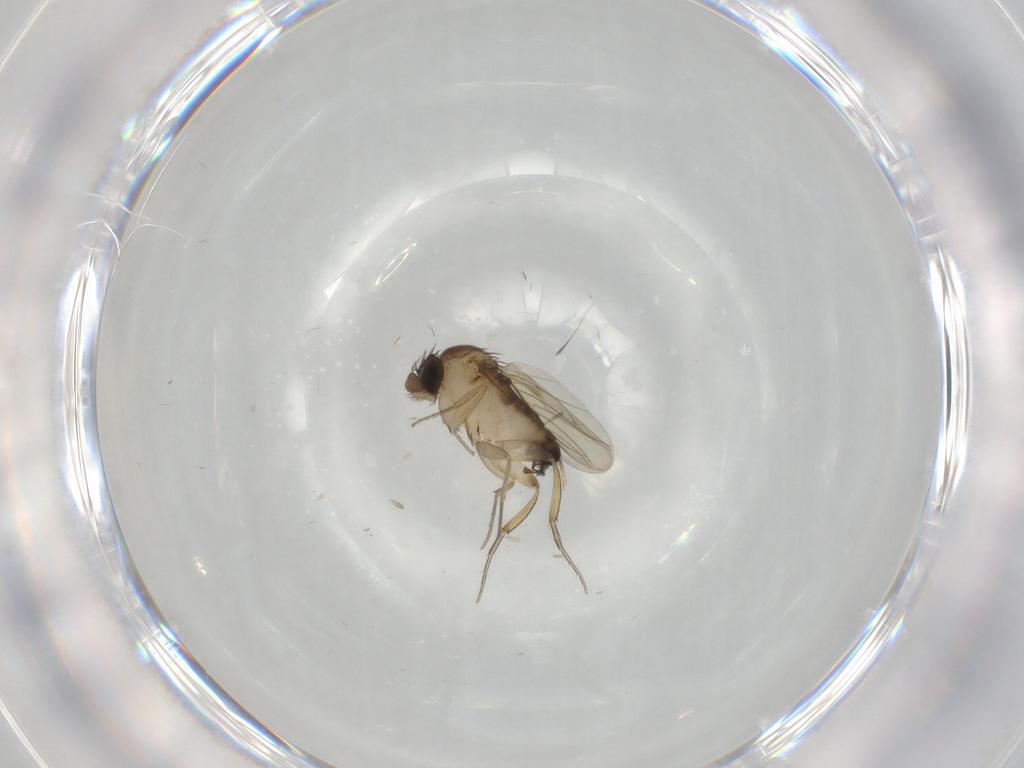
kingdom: Animalia
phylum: Arthropoda
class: Insecta
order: Diptera
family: Phoridae
